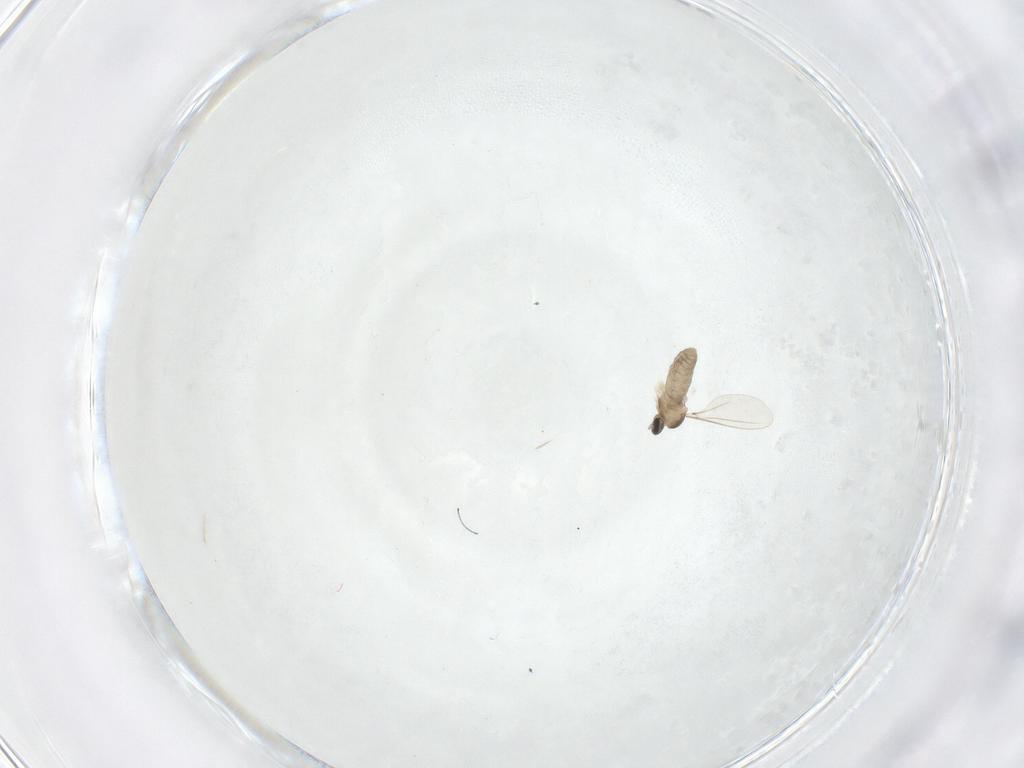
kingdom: Animalia
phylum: Arthropoda
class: Insecta
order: Diptera
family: Cecidomyiidae
